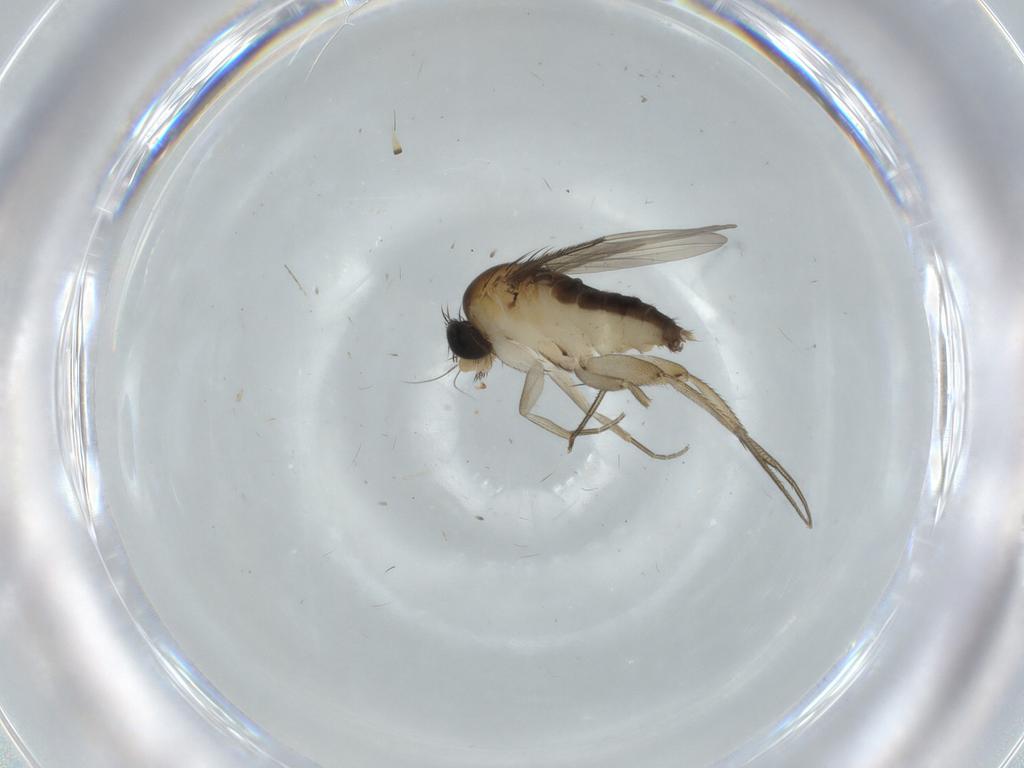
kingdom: Animalia
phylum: Arthropoda
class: Insecta
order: Diptera
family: Phoridae
